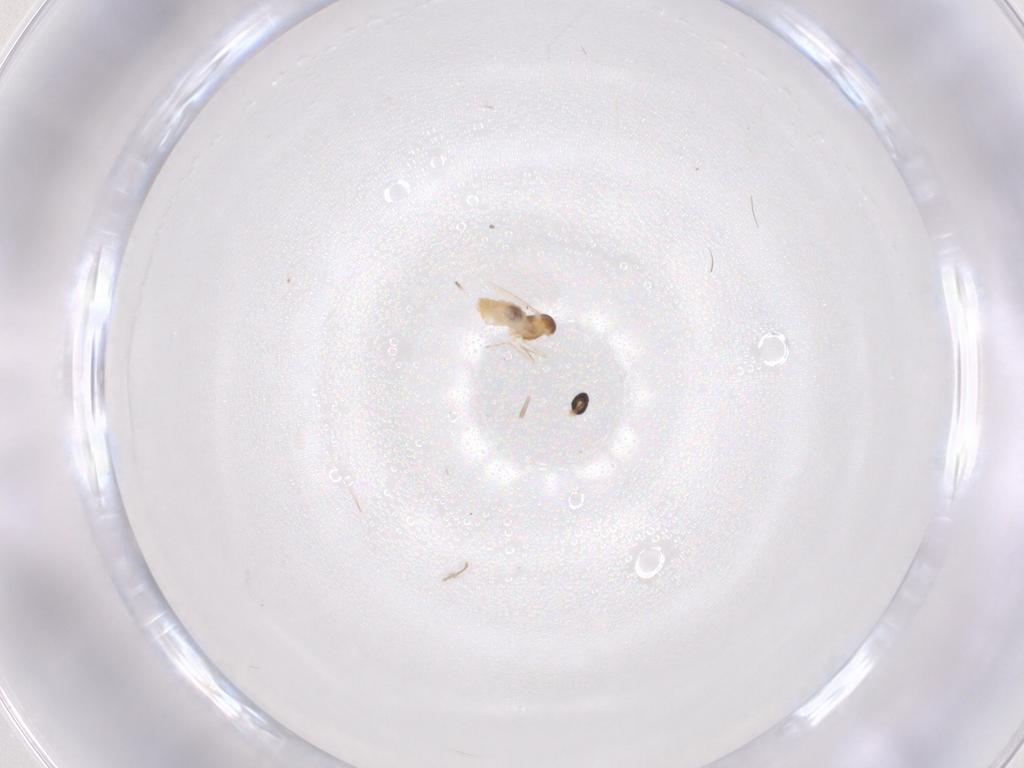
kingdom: Animalia
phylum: Arthropoda
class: Insecta
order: Diptera
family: Cecidomyiidae
